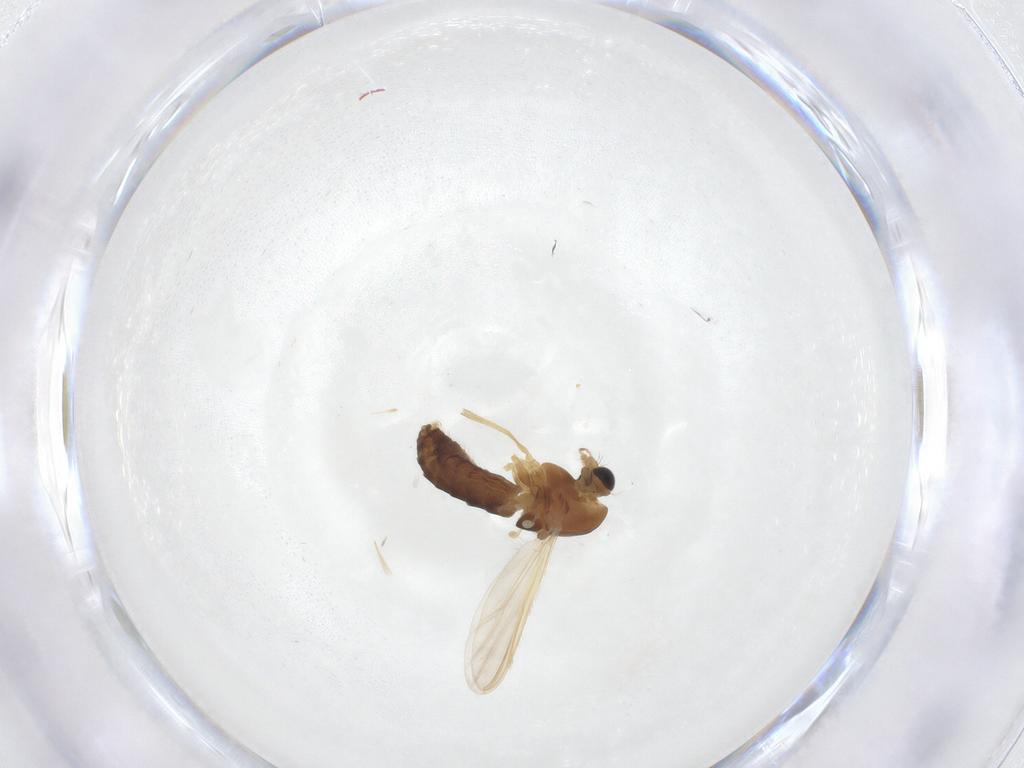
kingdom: Animalia
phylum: Arthropoda
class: Insecta
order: Diptera
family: Chironomidae
